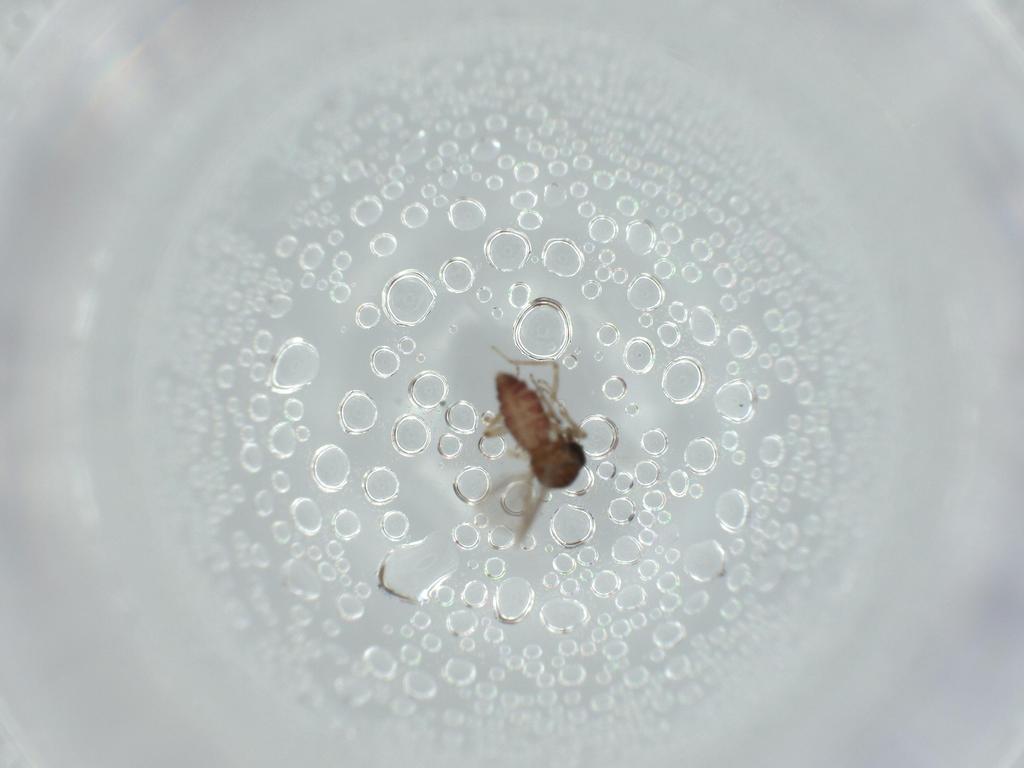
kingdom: Animalia
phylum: Arthropoda
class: Insecta
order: Diptera
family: Ceratopogonidae
